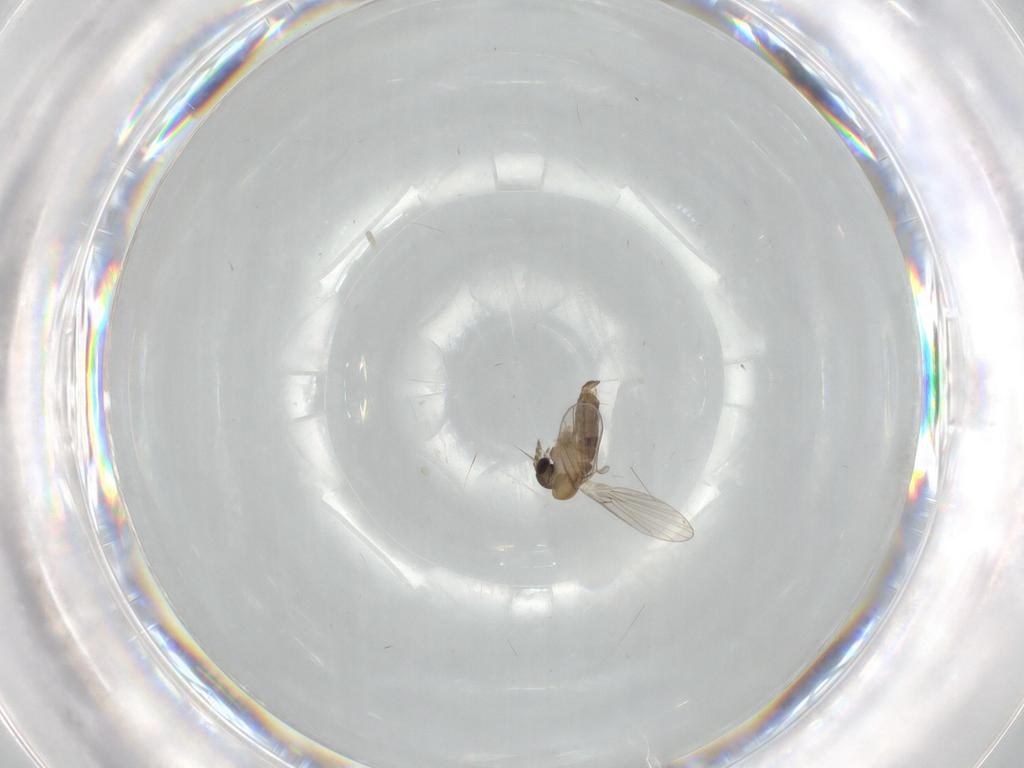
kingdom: Animalia
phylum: Arthropoda
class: Insecta
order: Diptera
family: Psychodidae
